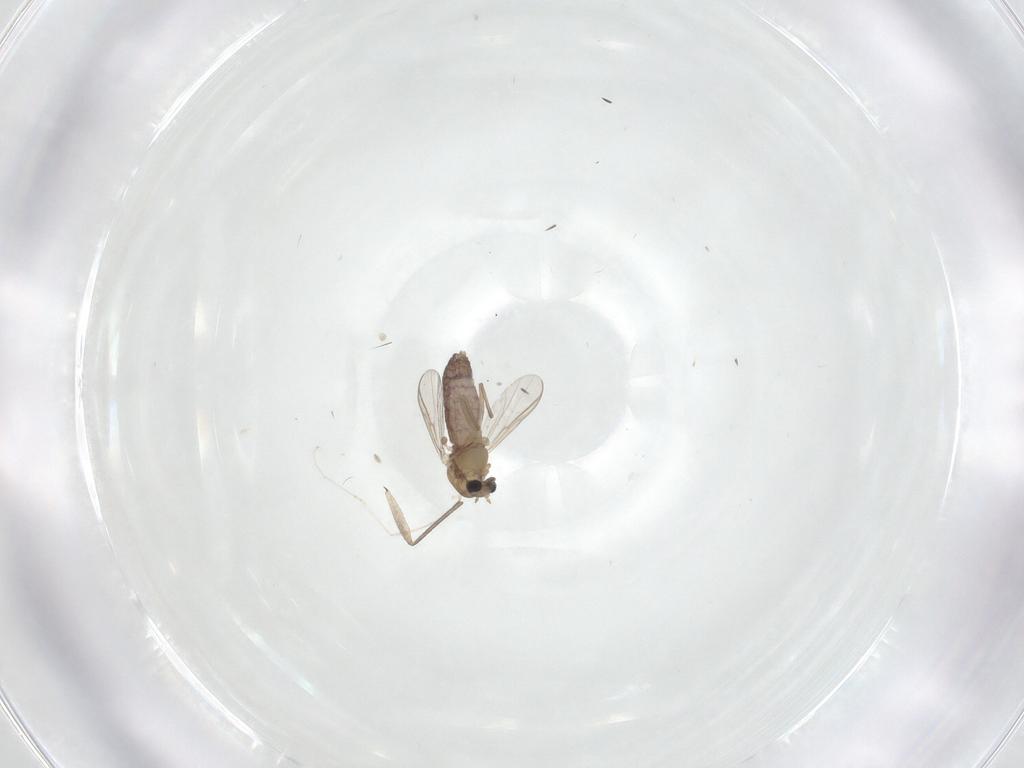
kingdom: Animalia
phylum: Arthropoda
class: Insecta
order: Diptera
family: Chironomidae
